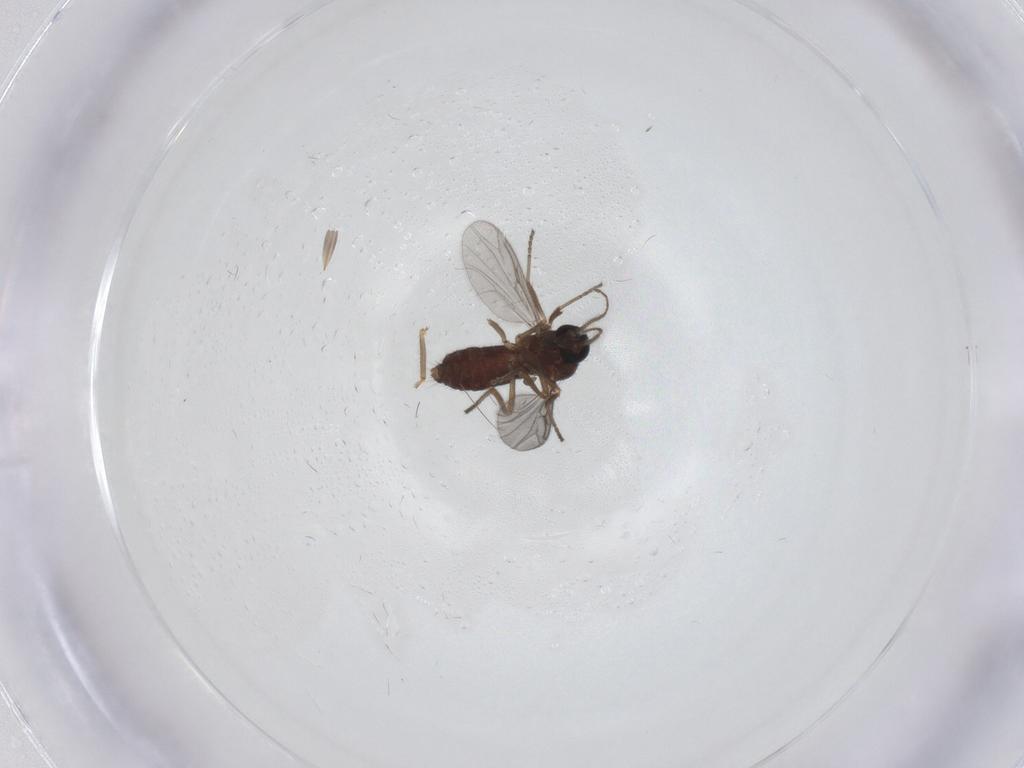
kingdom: Animalia
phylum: Arthropoda
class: Insecta
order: Diptera
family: Ceratopogonidae
